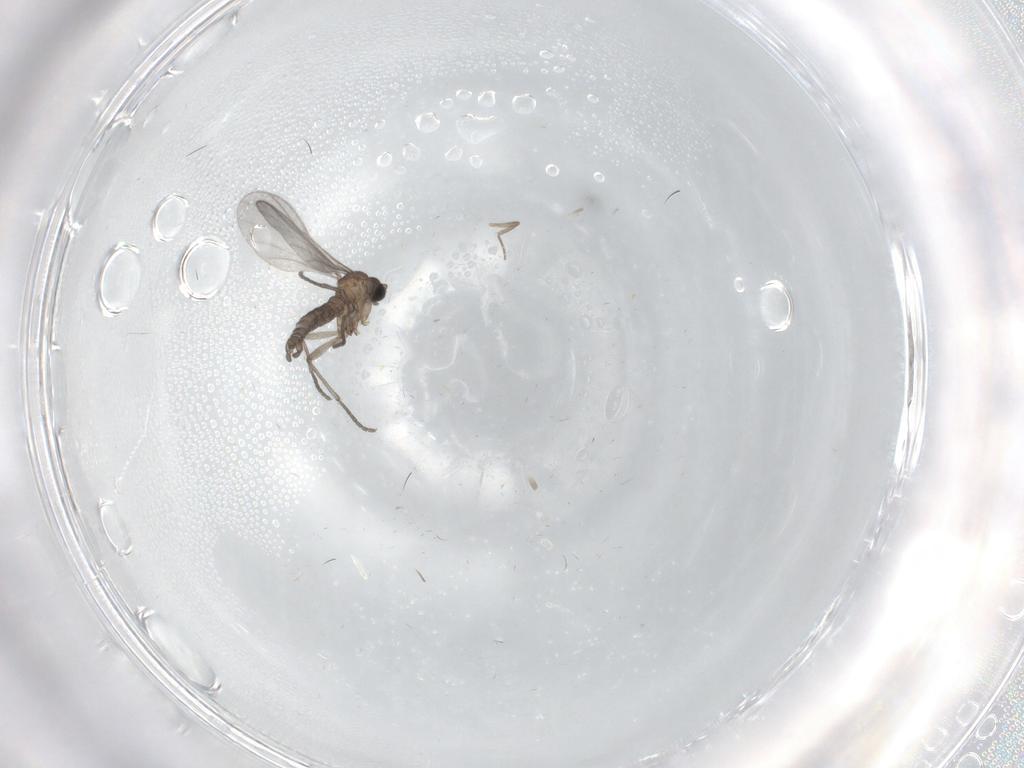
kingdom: Animalia
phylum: Arthropoda
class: Insecta
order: Diptera
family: Sciaridae
